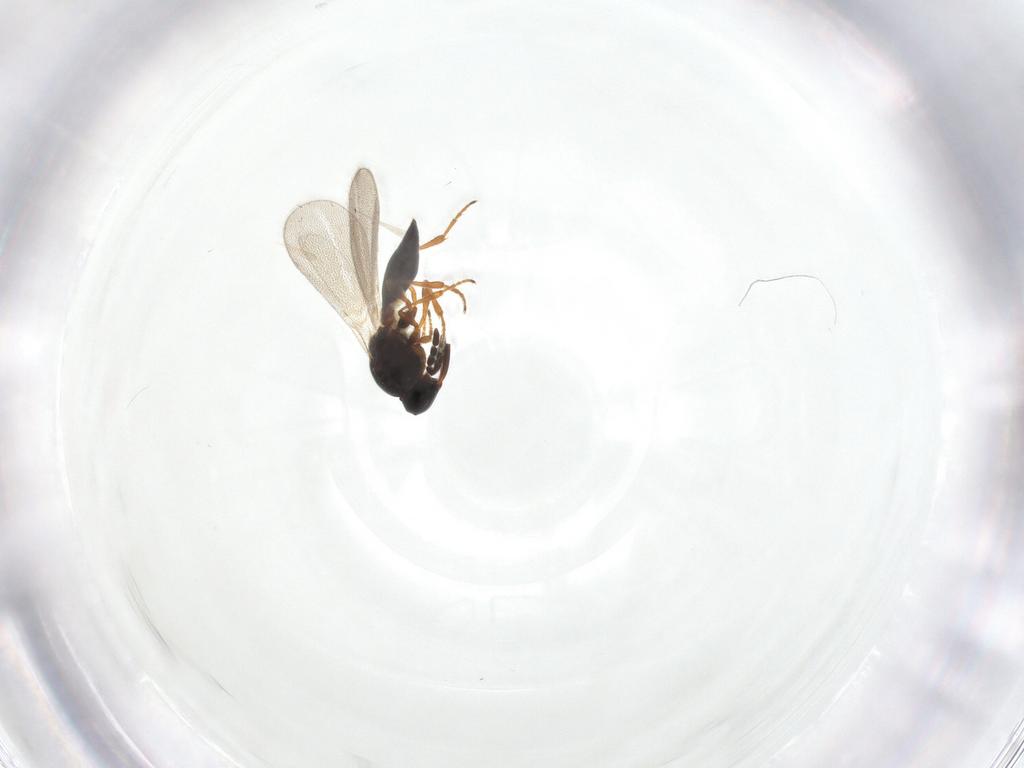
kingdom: Animalia
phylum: Arthropoda
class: Insecta
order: Hymenoptera
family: Platygastridae
